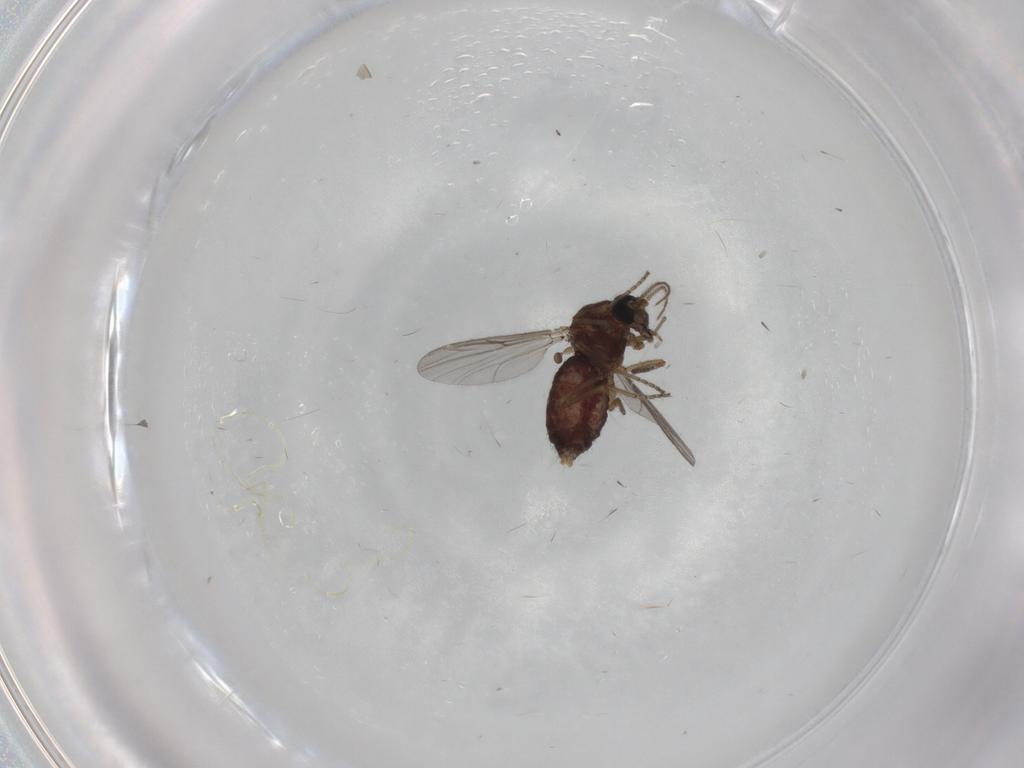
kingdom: Animalia
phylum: Arthropoda
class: Insecta
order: Diptera
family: Ceratopogonidae
